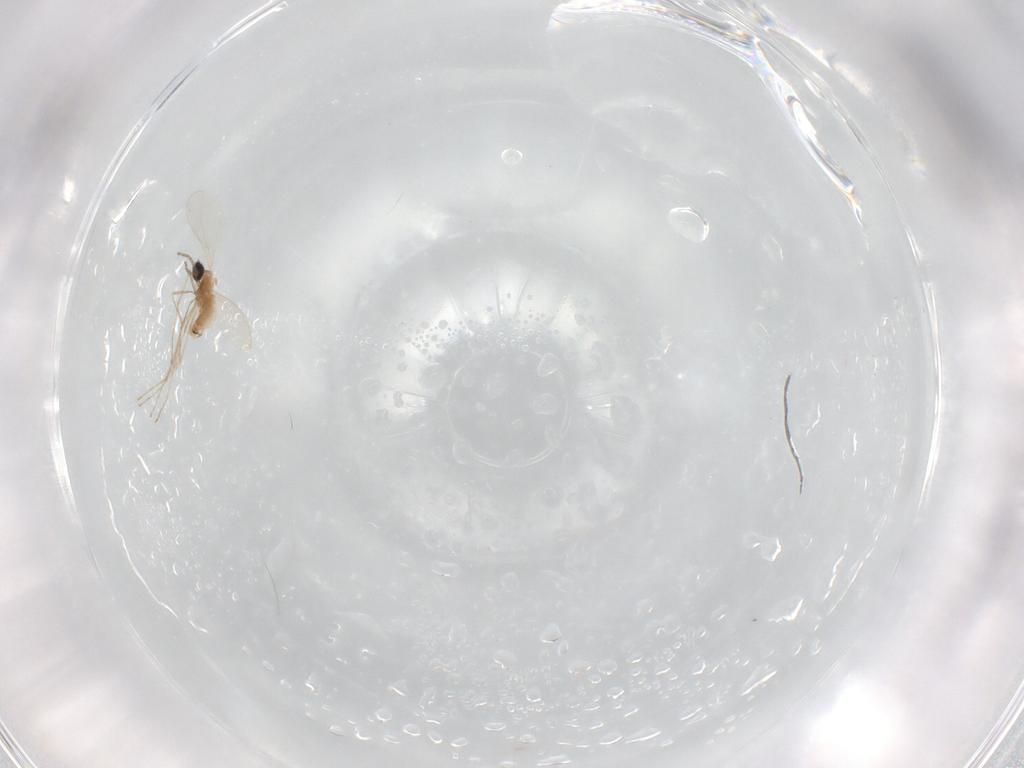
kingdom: Animalia
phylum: Arthropoda
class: Insecta
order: Diptera
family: Cecidomyiidae
